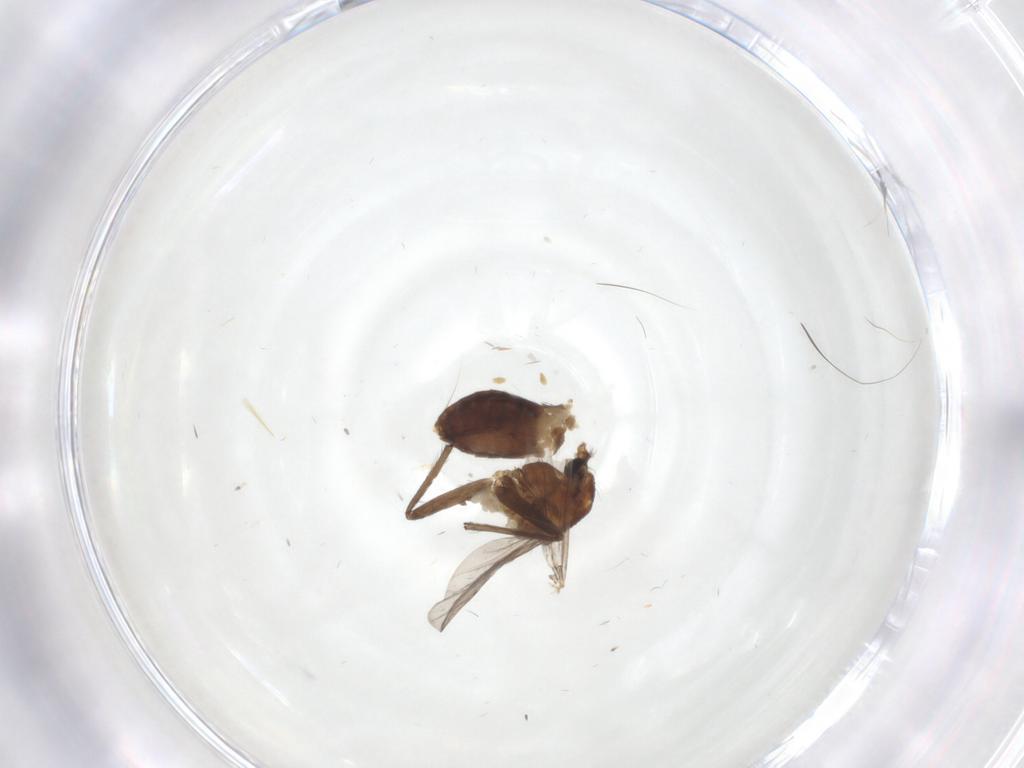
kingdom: Animalia
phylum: Arthropoda
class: Insecta
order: Diptera
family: Chironomidae
